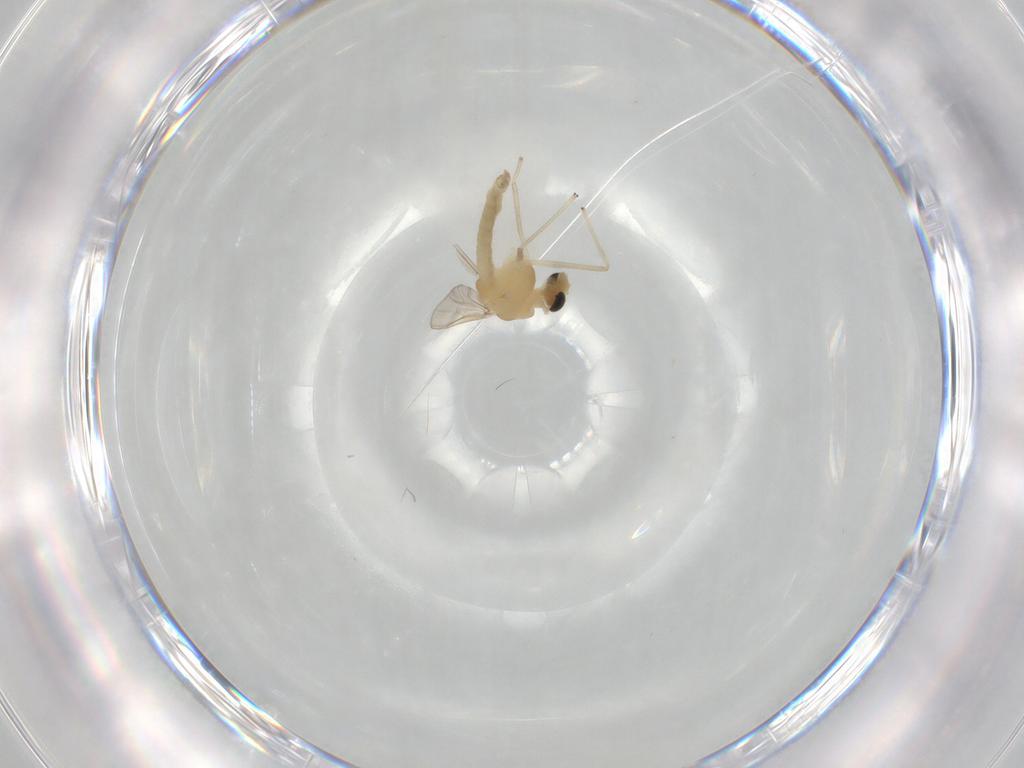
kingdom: Animalia
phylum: Arthropoda
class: Insecta
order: Diptera
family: Chironomidae
